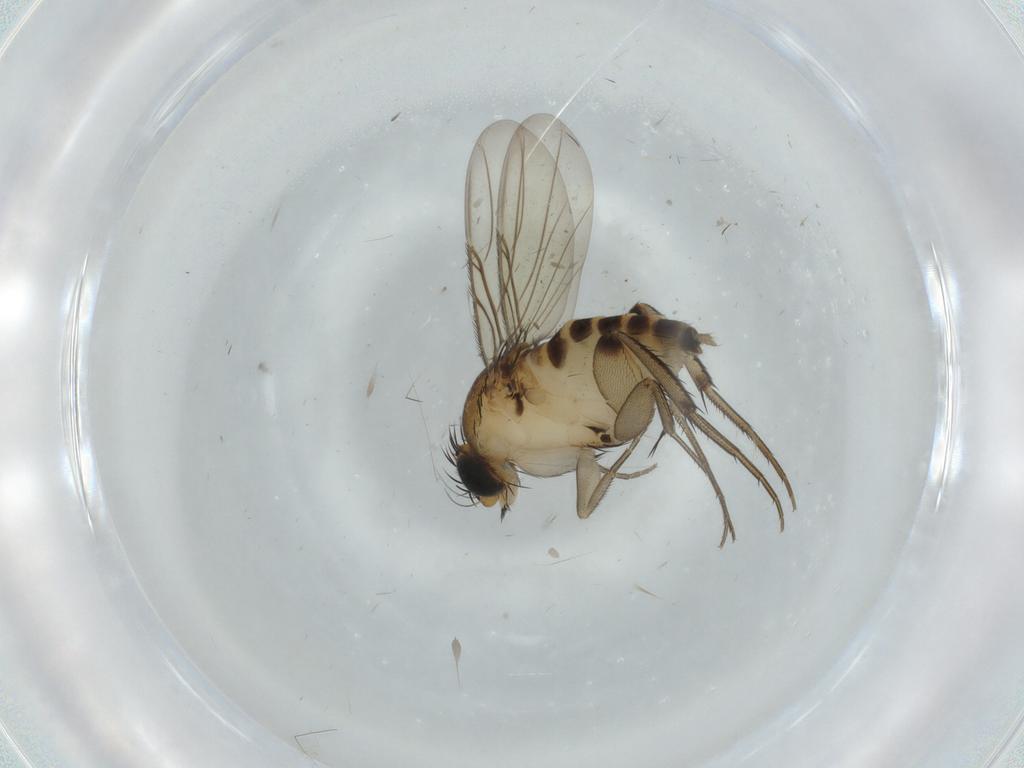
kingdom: Animalia
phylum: Arthropoda
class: Insecta
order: Diptera
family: Phoridae
